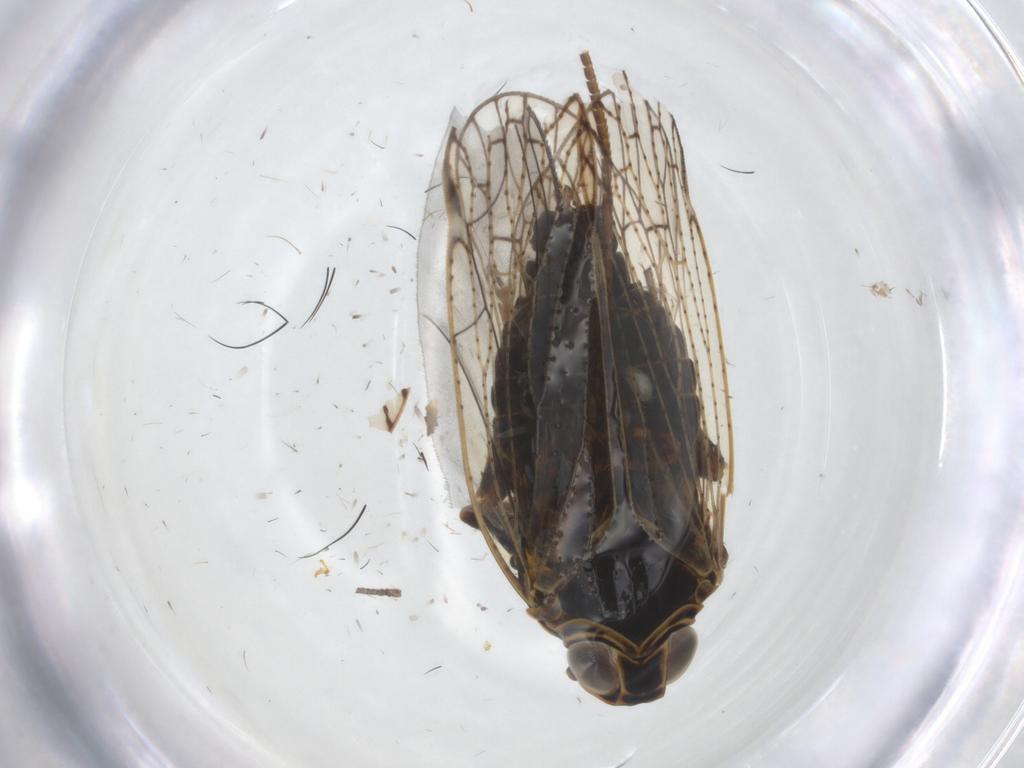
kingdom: Animalia
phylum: Arthropoda
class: Insecta
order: Hemiptera
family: Cixiidae
